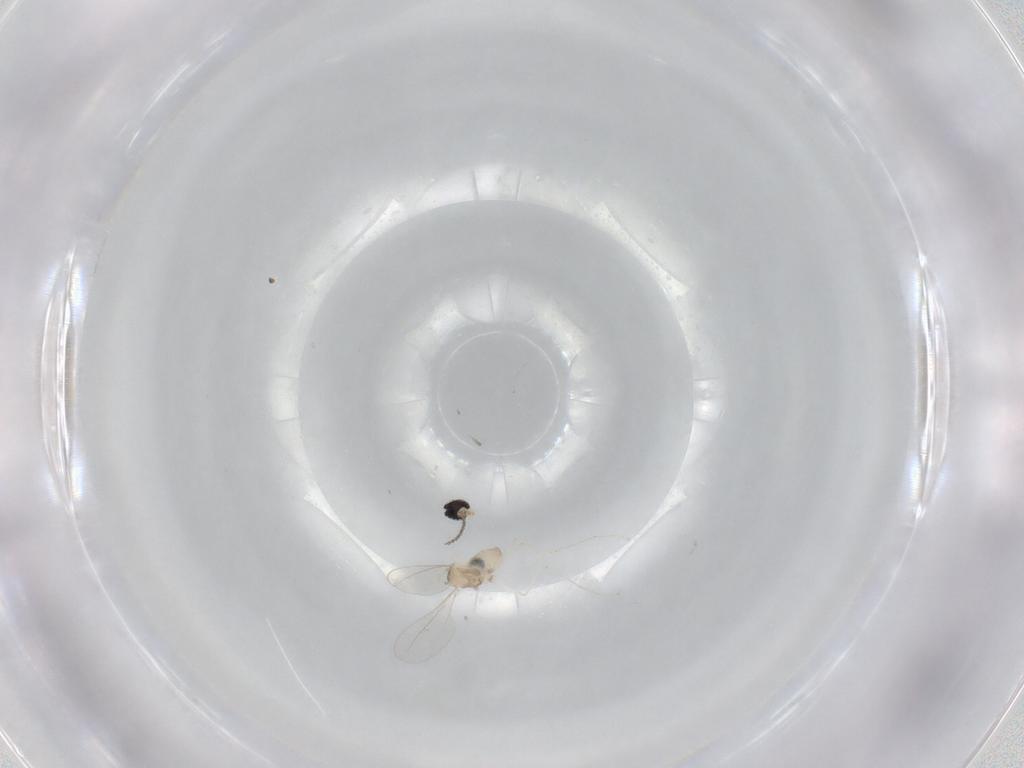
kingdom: Animalia
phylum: Arthropoda
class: Insecta
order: Diptera
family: Cecidomyiidae
